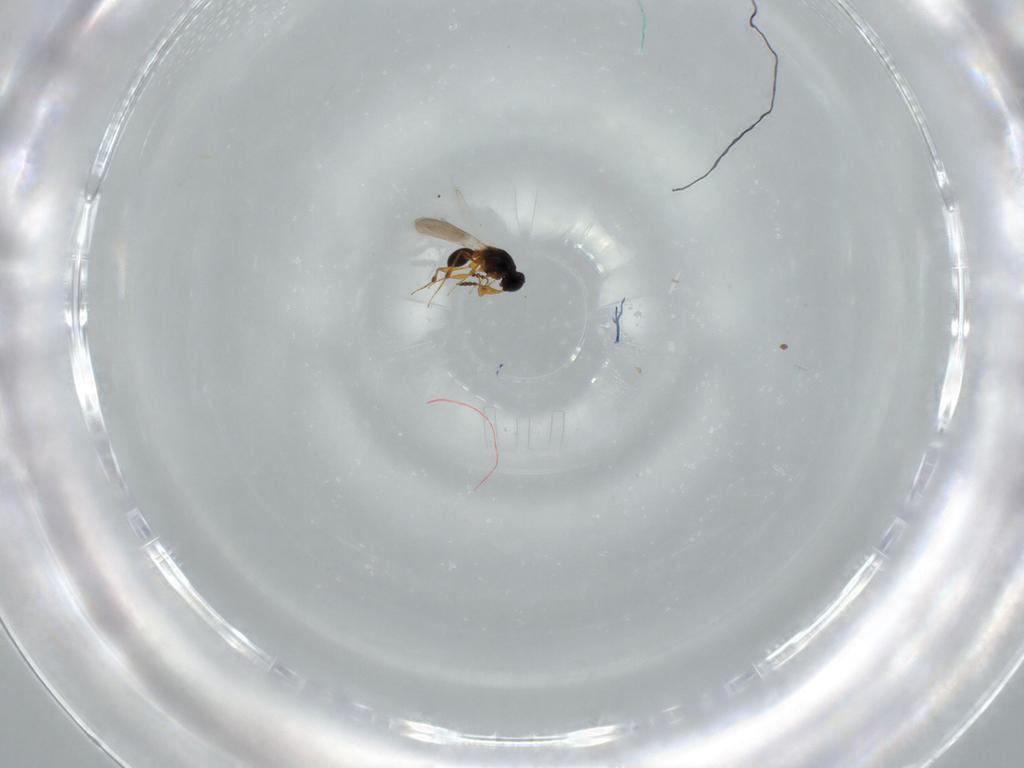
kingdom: Animalia
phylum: Arthropoda
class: Insecta
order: Hymenoptera
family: Platygastridae
